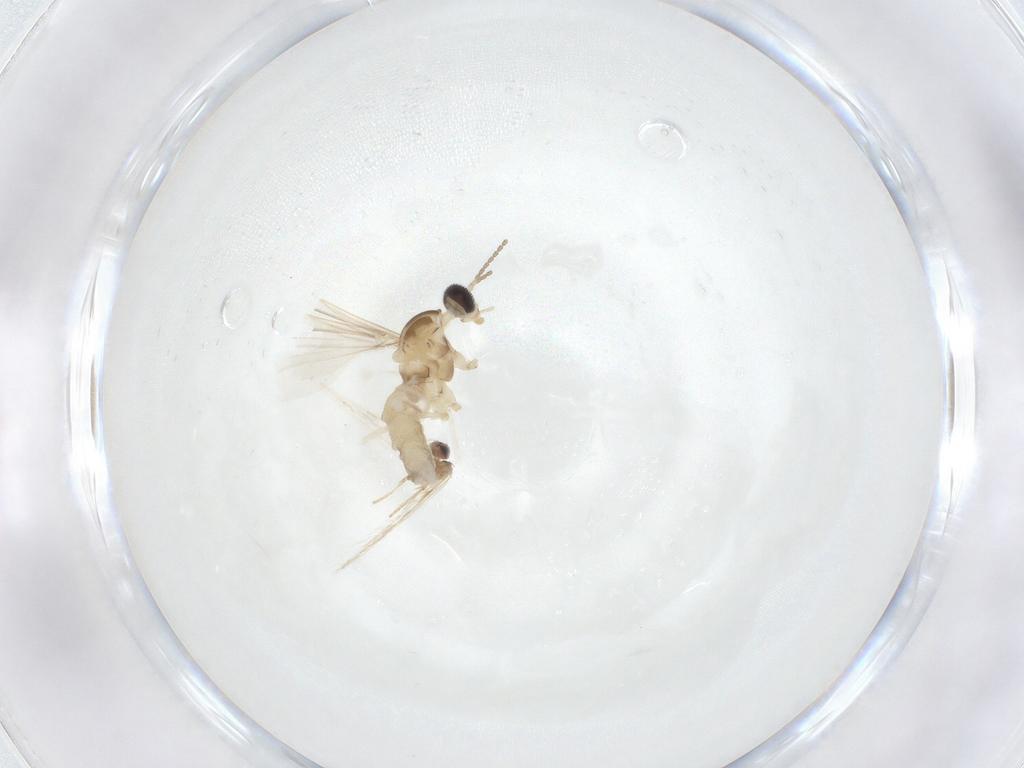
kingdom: Animalia
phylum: Arthropoda
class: Insecta
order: Diptera
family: Cecidomyiidae
